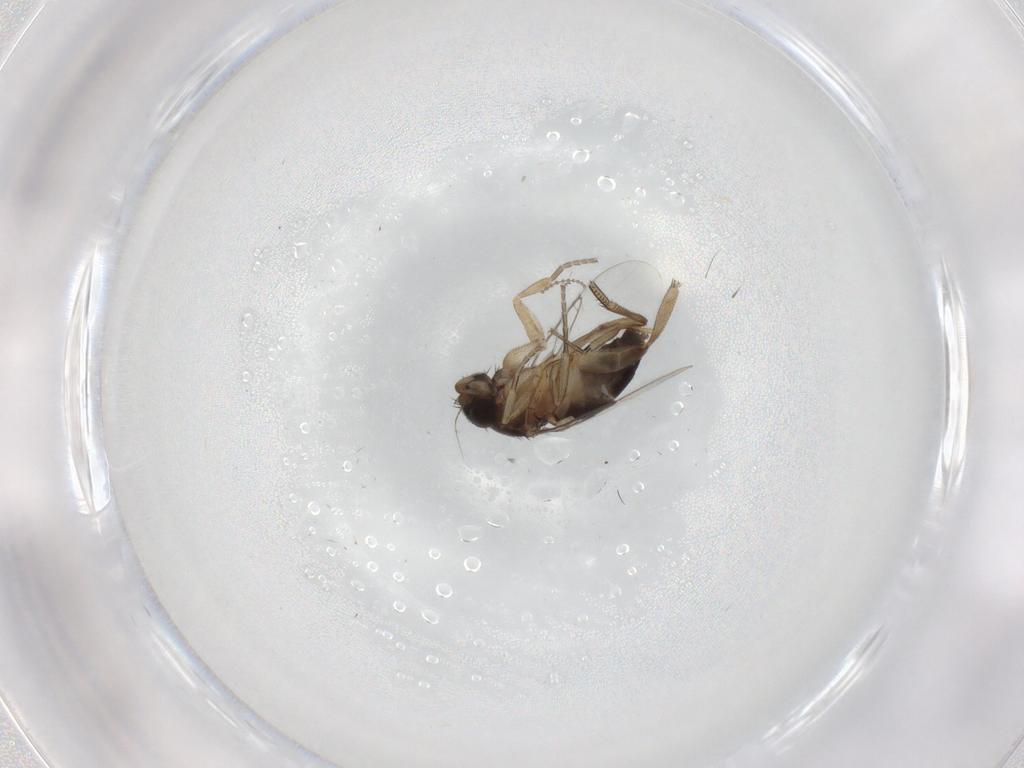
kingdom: Animalia
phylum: Arthropoda
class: Insecta
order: Diptera
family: Phoridae
